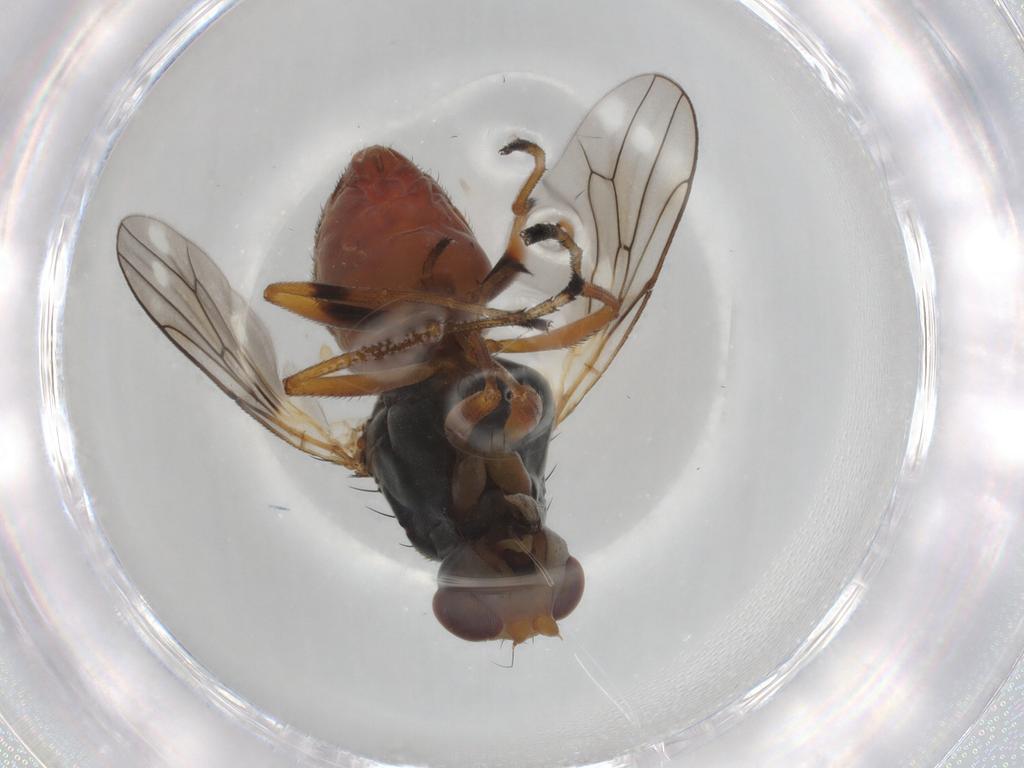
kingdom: Animalia
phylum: Arthropoda
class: Insecta
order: Diptera
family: Chloropidae
